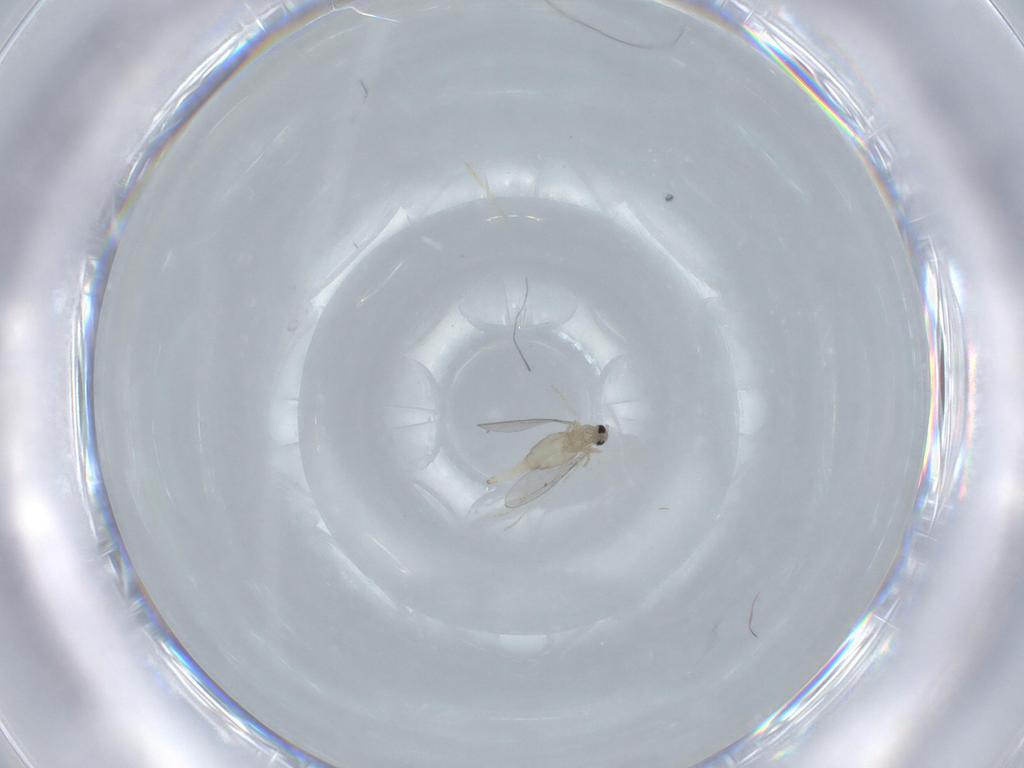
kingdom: Animalia
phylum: Arthropoda
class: Insecta
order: Diptera
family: Cecidomyiidae
